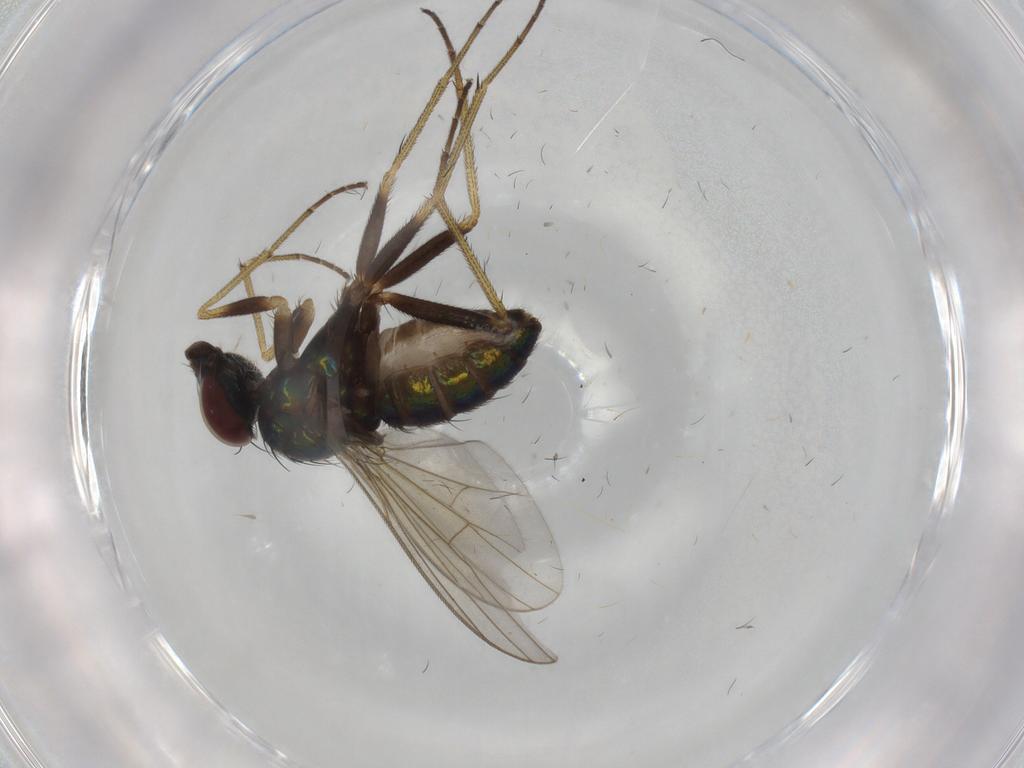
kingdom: Animalia
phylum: Arthropoda
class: Insecta
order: Diptera
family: Dolichopodidae
